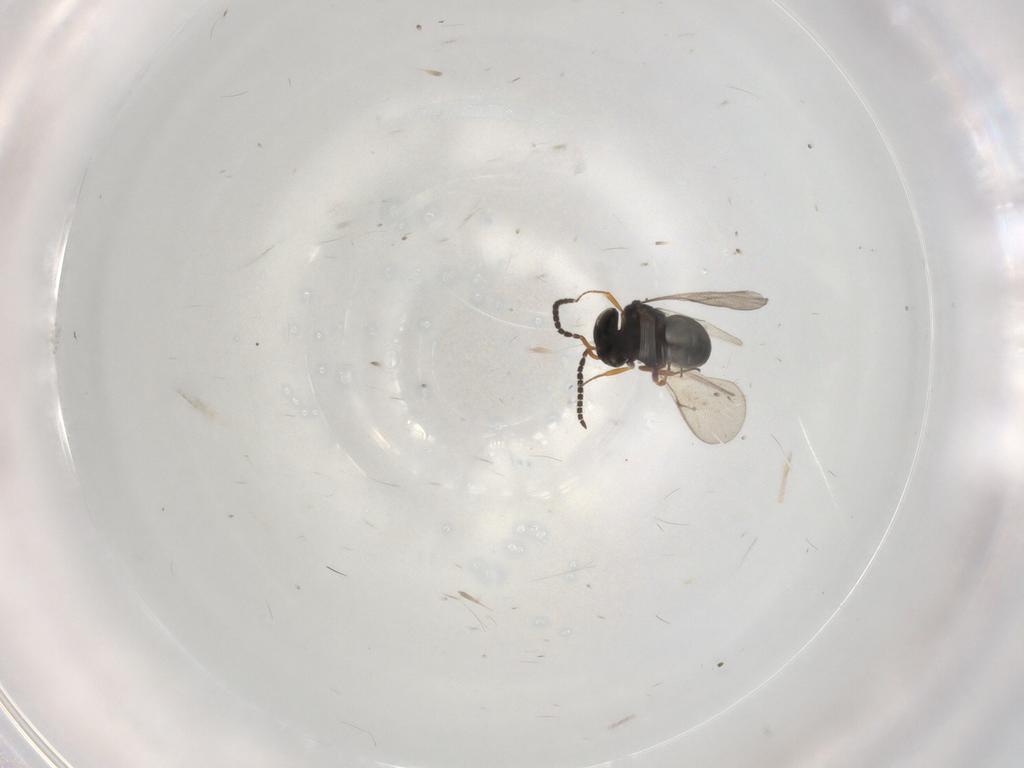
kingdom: Animalia
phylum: Arthropoda
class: Insecta
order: Hymenoptera
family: Scelionidae
